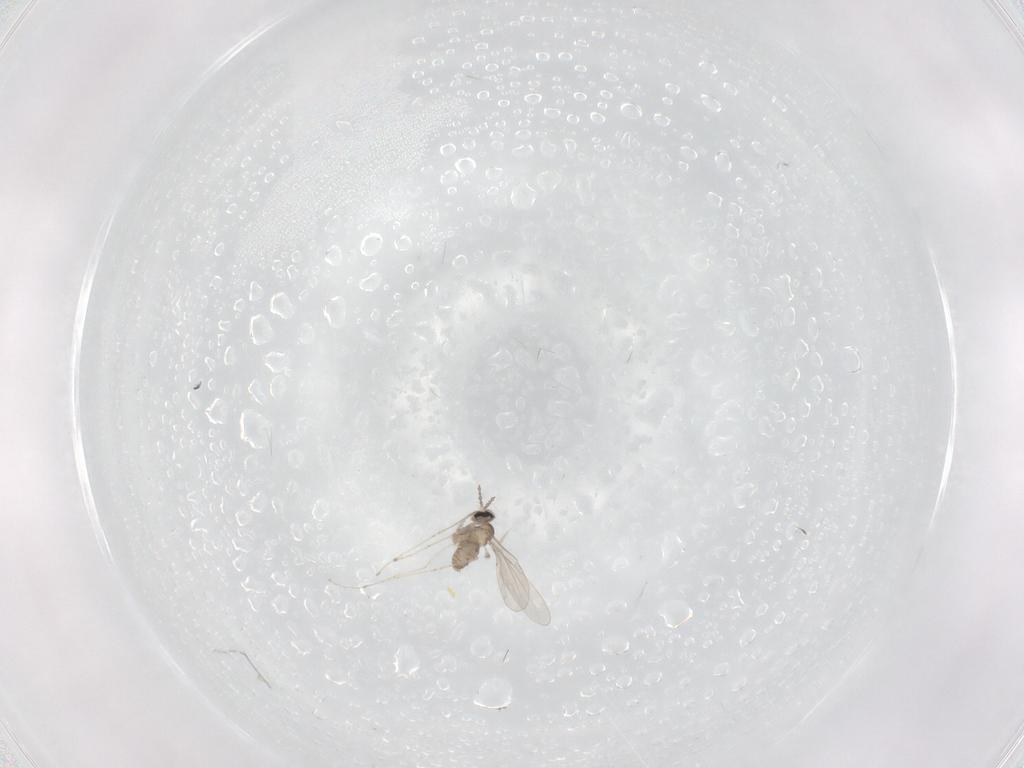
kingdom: Animalia
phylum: Arthropoda
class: Insecta
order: Diptera
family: Cecidomyiidae
